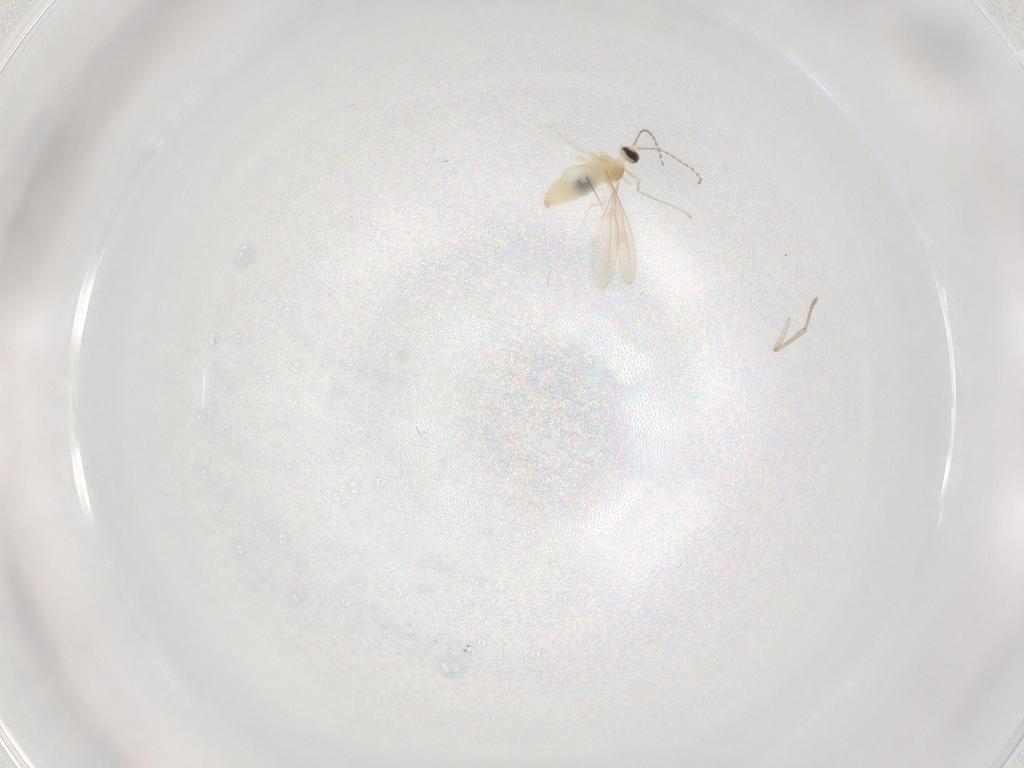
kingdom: Animalia
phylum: Arthropoda
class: Insecta
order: Diptera
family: Cecidomyiidae
